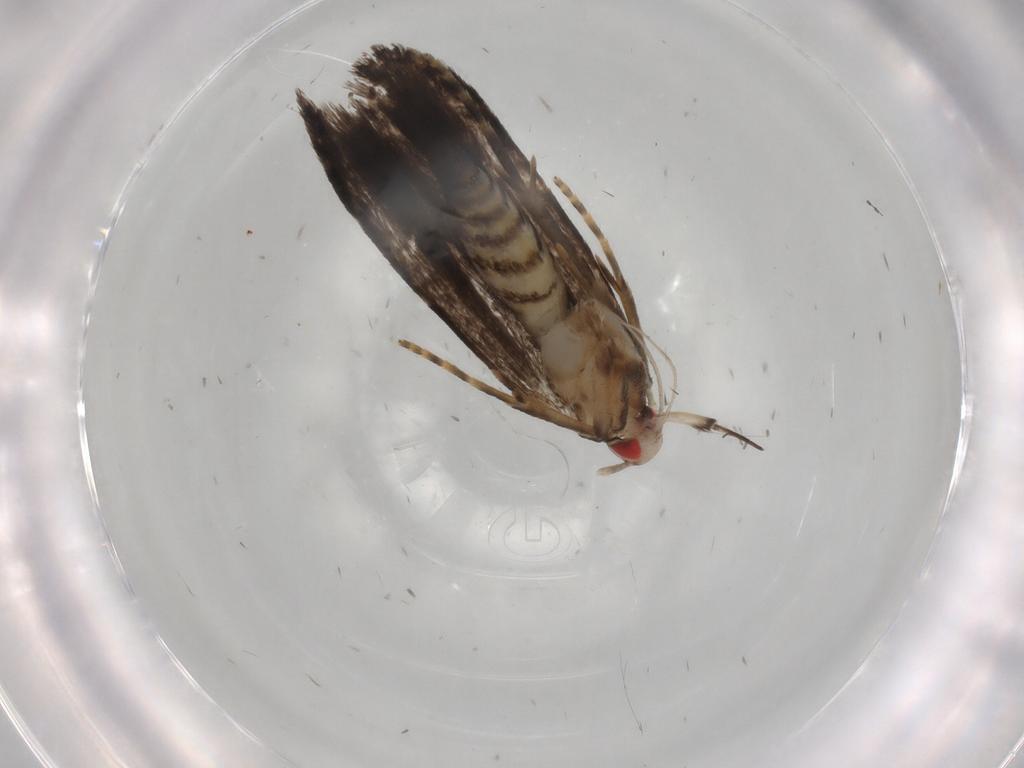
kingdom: Animalia
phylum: Arthropoda
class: Insecta
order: Lepidoptera
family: Gelechiidae
